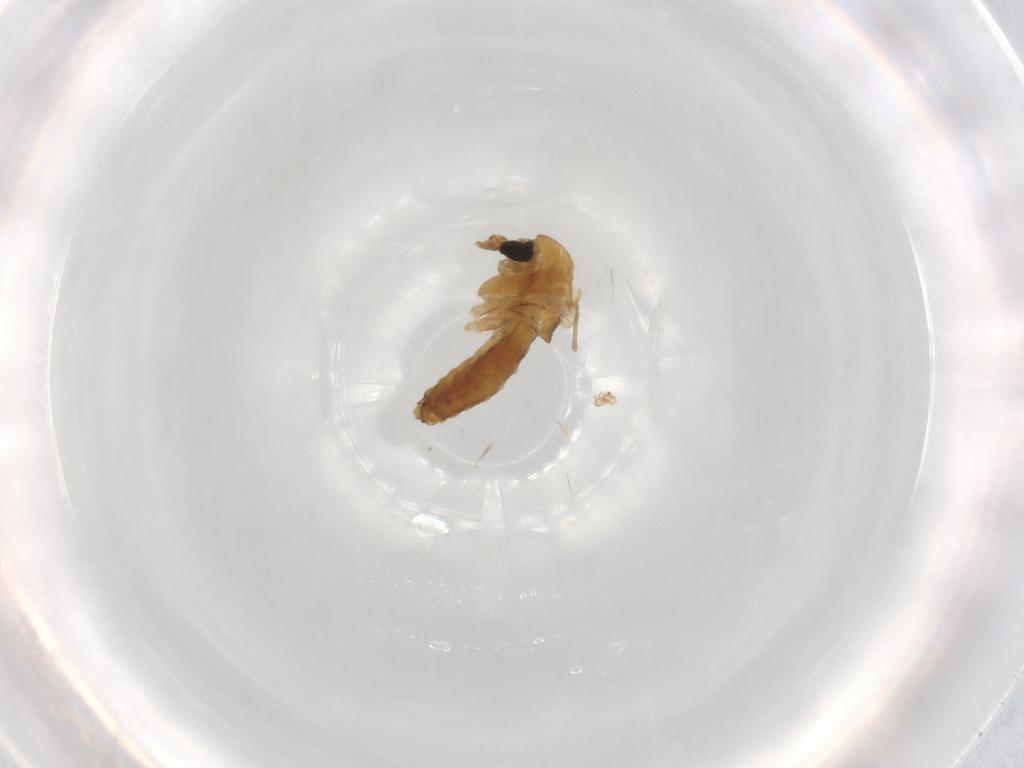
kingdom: Animalia
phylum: Arthropoda
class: Insecta
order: Diptera
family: Chironomidae
